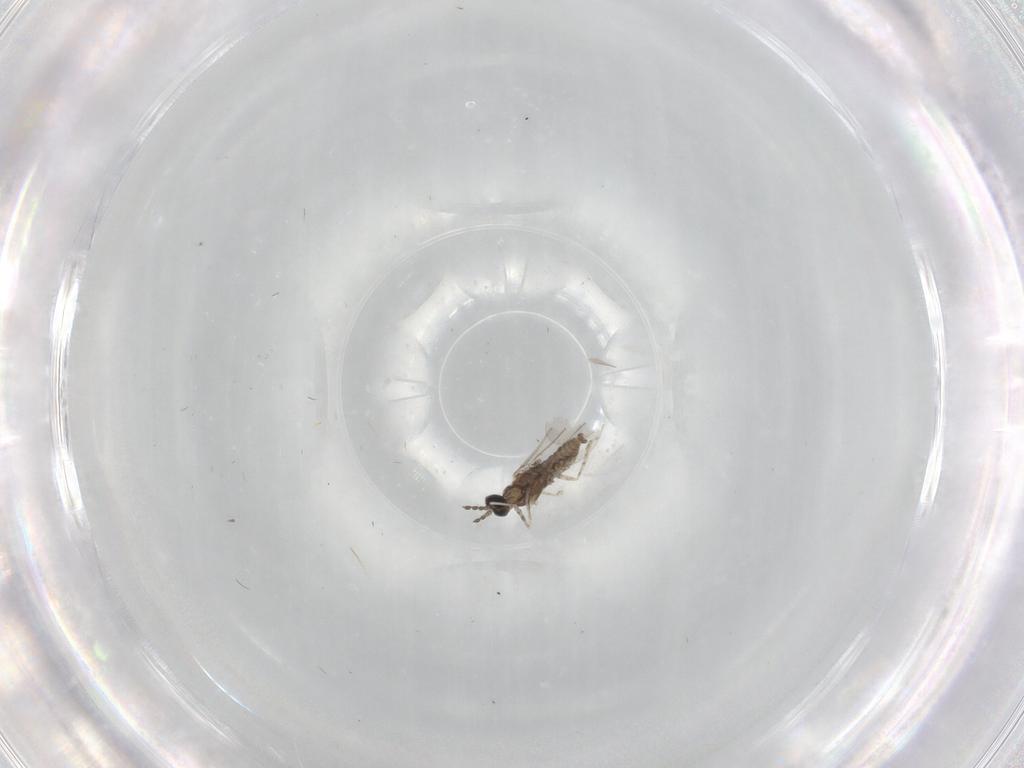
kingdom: Animalia
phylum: Arthropoda
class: Insecta
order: Diptera
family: Cecidomyiidae
